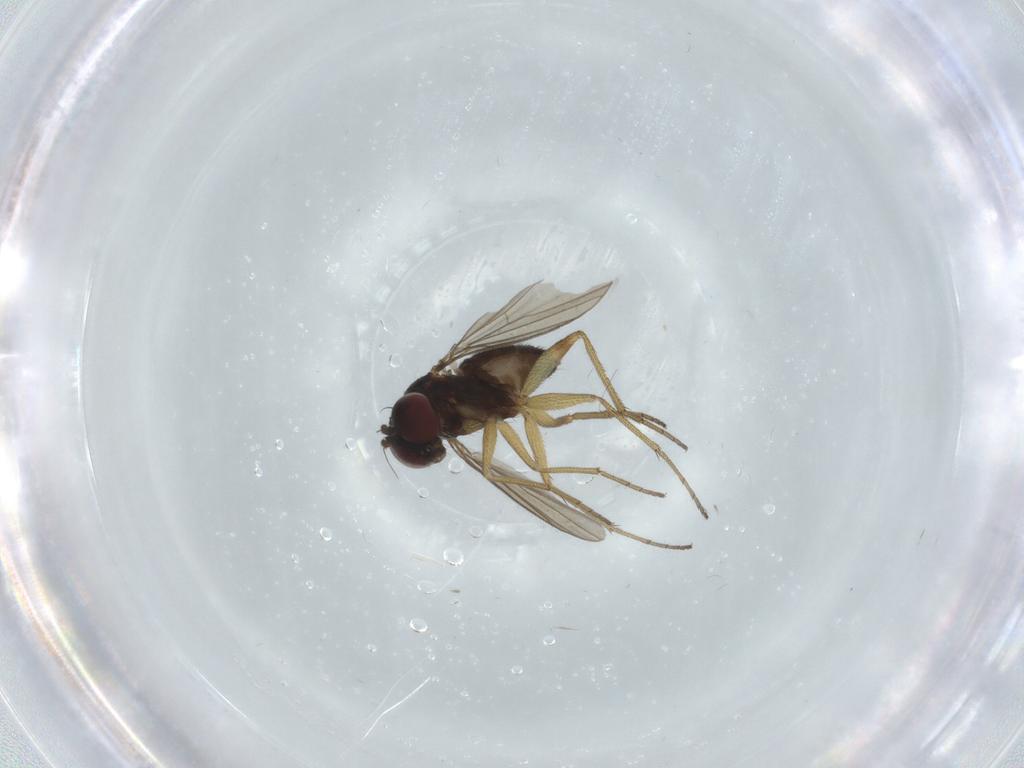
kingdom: Animalia
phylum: Arthropoda
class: Insecta
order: Diptera
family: Dolichopodidae
